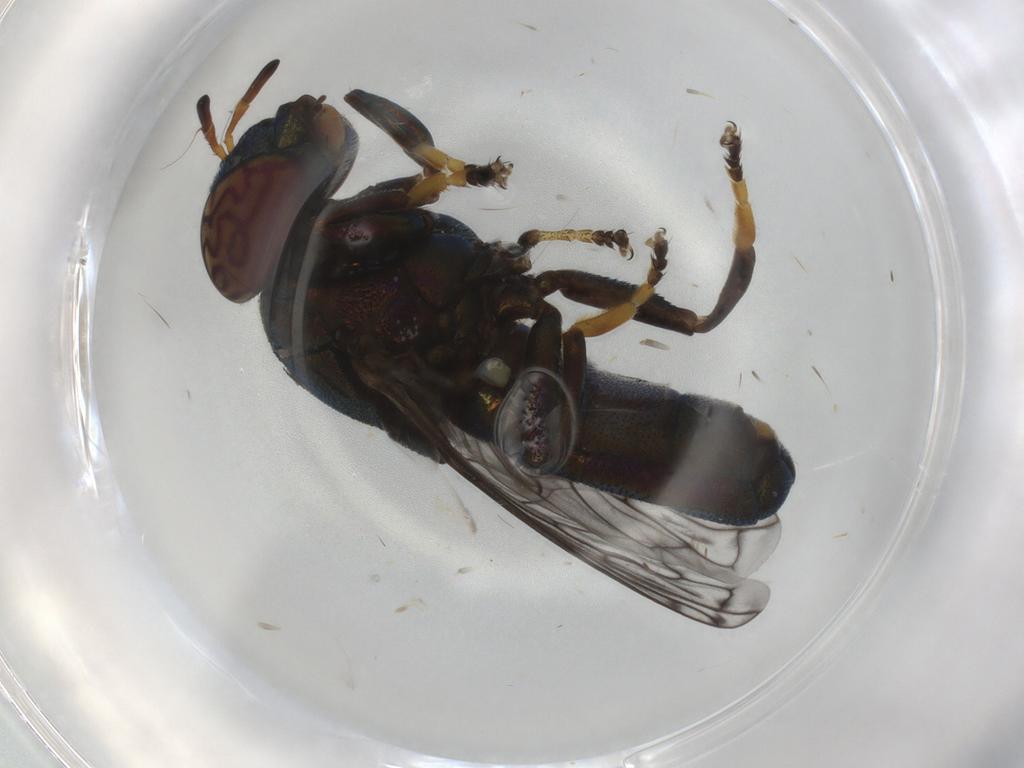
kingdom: Animalia
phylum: Arthropoda
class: Insecta
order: Diptera
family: Syrphidae
